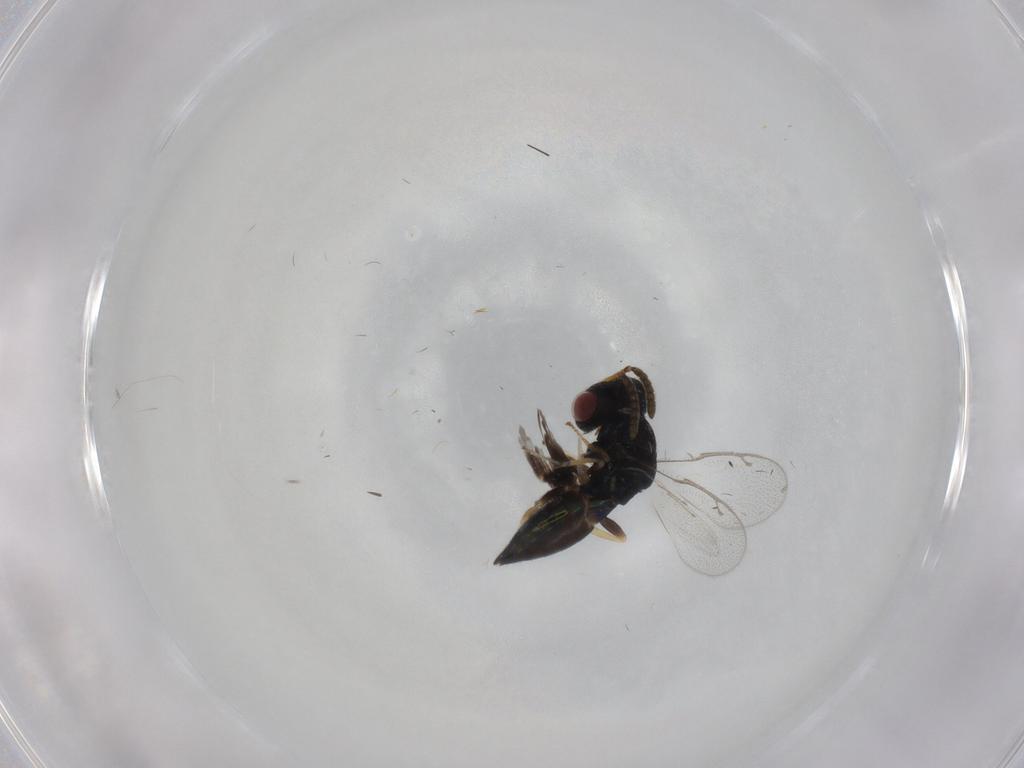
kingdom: Animalia
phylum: Arthropoda
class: Insecta
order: Hymenoptera
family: Pteromalidae
